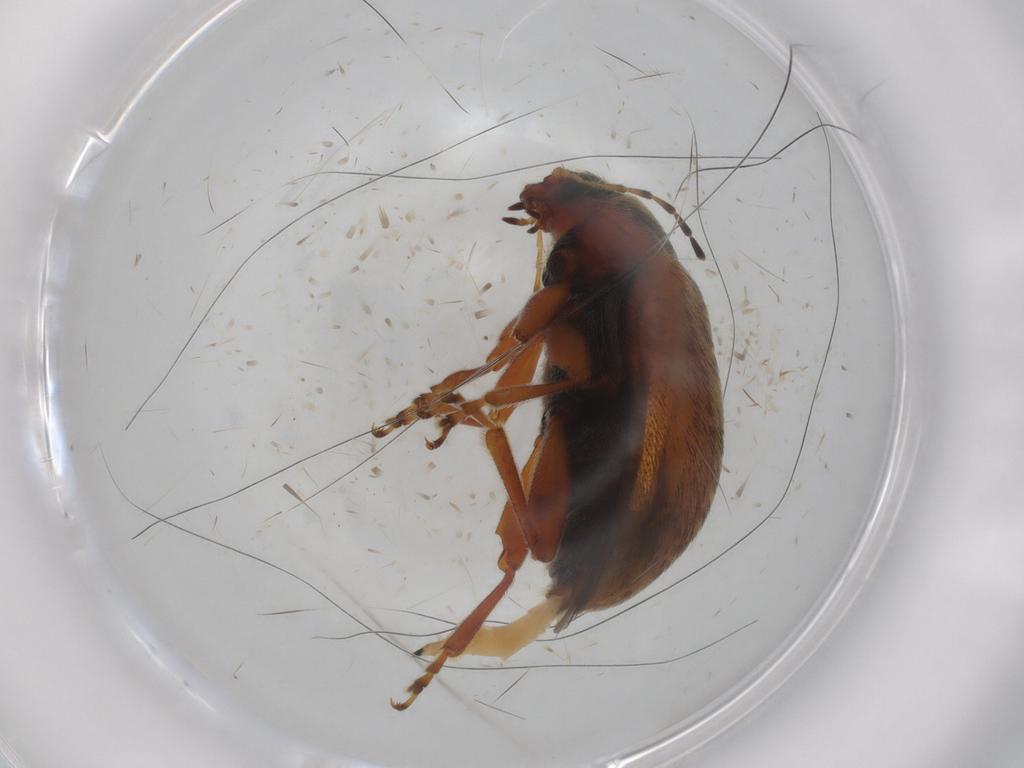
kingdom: Animalia
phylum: Arthropoda
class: Insecta
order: Coleoptera
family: Chrysomelidae
